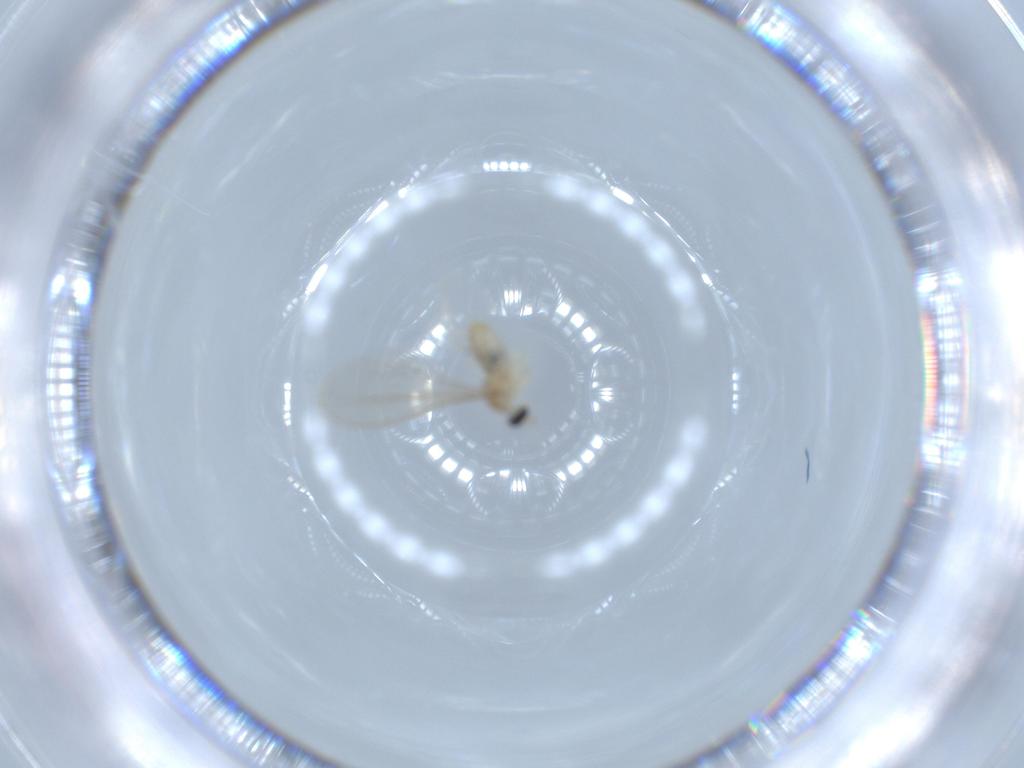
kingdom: Animalia
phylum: Arthropoda
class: Insecta
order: Diptera
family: Cecidomyiidae
